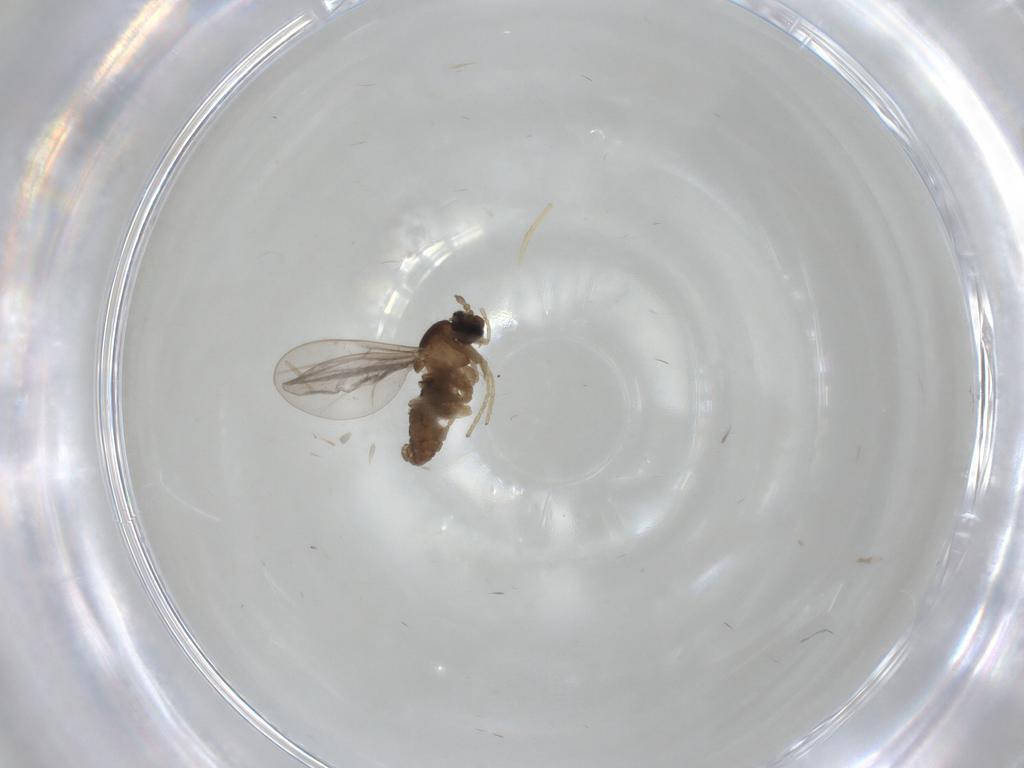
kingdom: Animalia
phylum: Arthropoda
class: Insecta
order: Diptera
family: Cecidomyiidae
